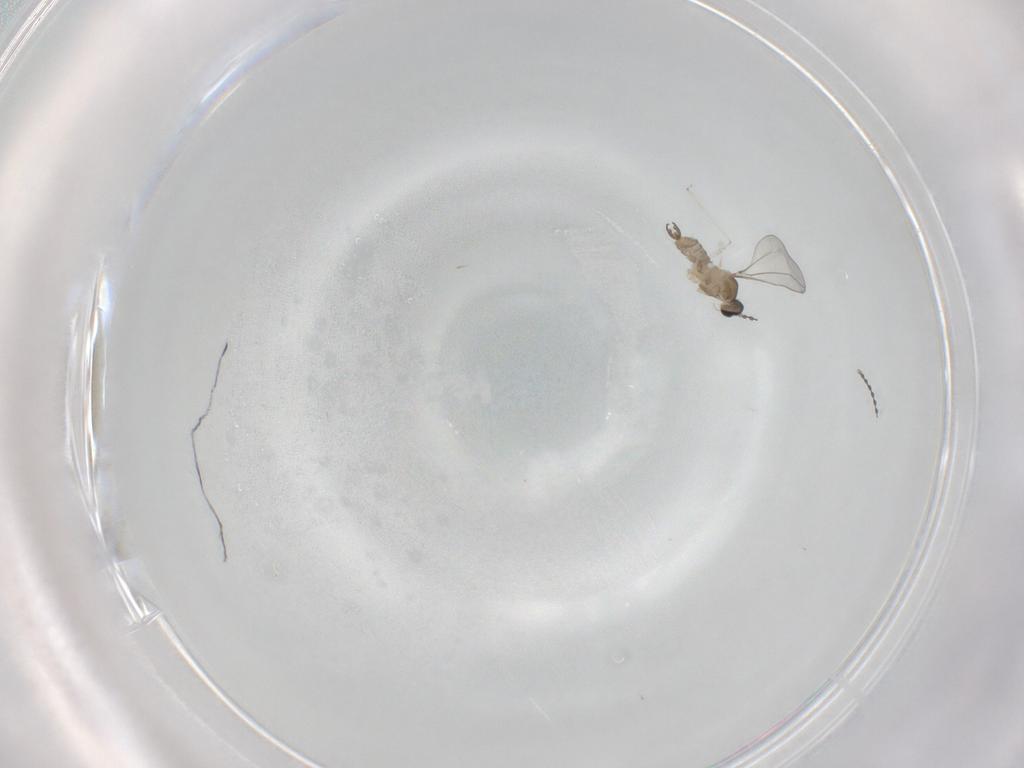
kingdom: Animalia
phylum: Arthropoda
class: Insecta
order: Diptera
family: Cecidomyiidae
